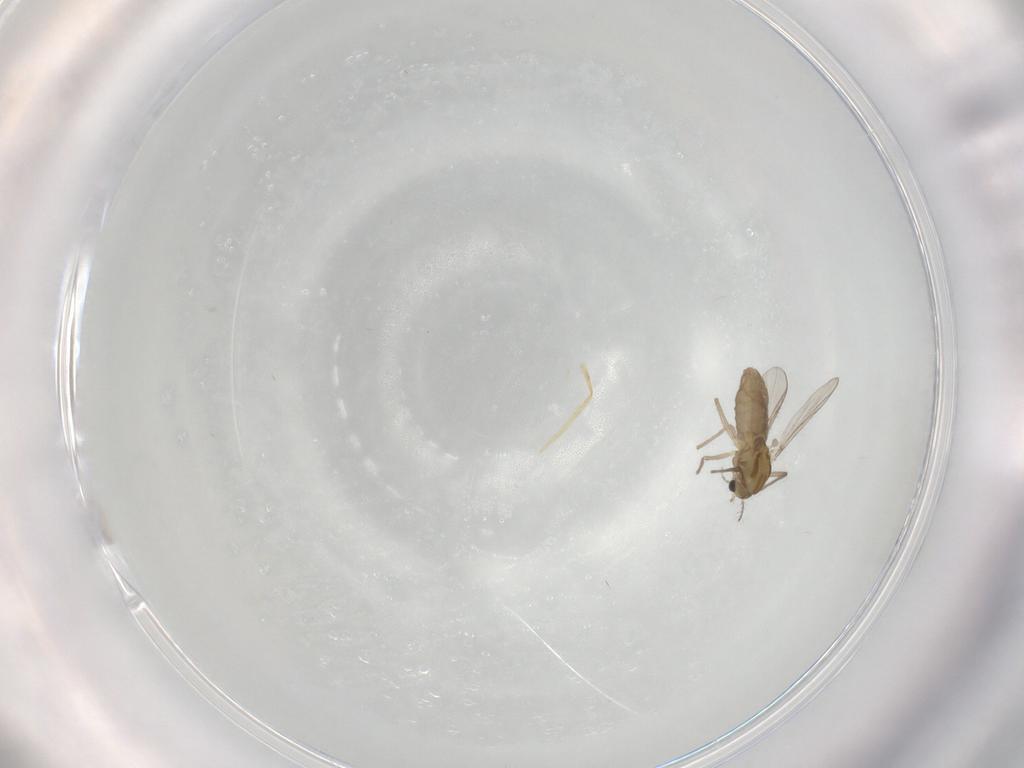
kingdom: Animalia
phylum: Arthropoda
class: Insecta
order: Diptera
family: Chironomidae
